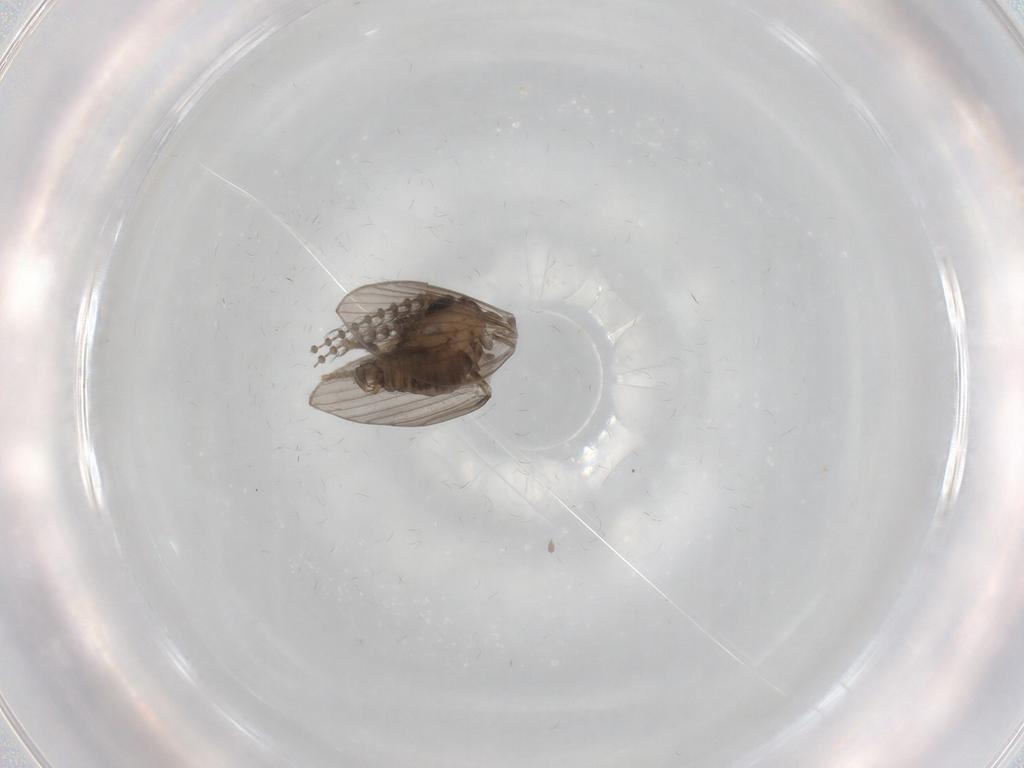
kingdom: Animalia
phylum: Arthropoda
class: Insecta
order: Diptera
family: Psychodidae
